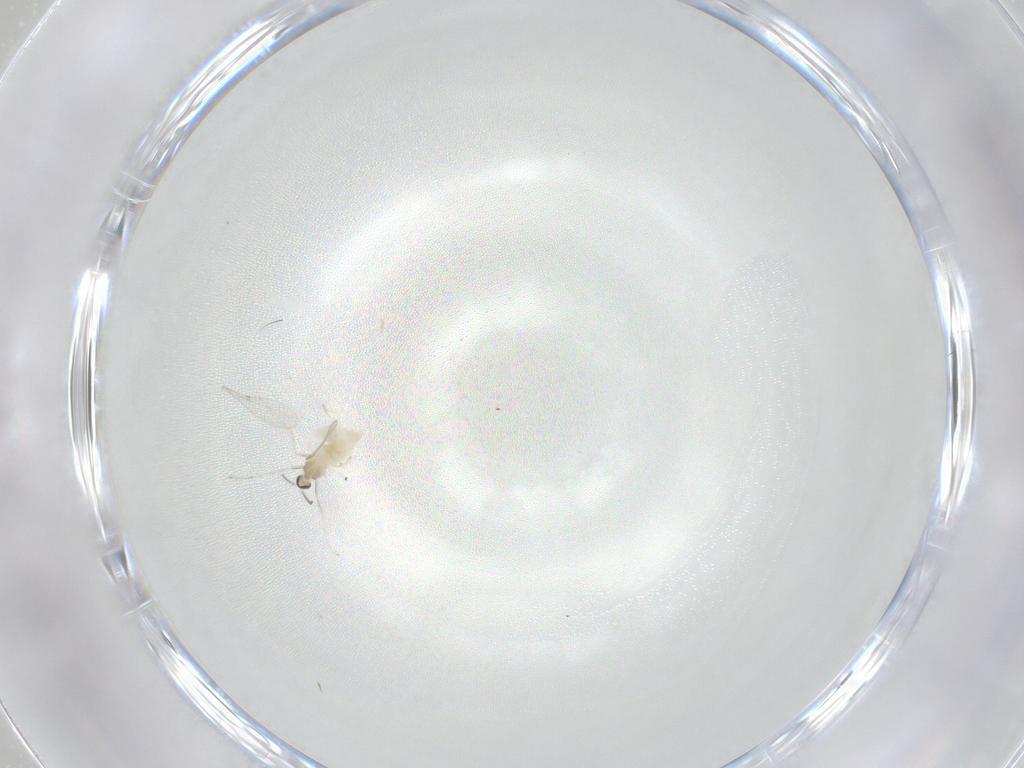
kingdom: Animalia
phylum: Arthropoda
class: Insecta
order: Diptera
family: Cecidomyiidae
